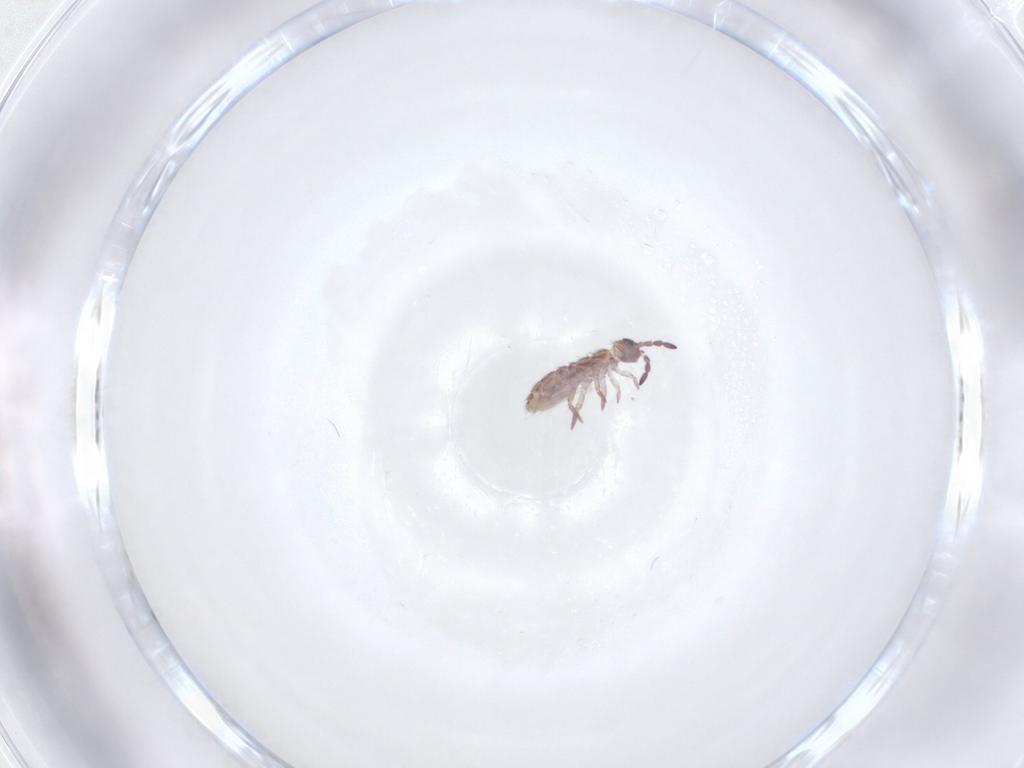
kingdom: Animalia
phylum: Arthropoda
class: Collembola
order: Entomobryomorpha
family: Isotomidae
